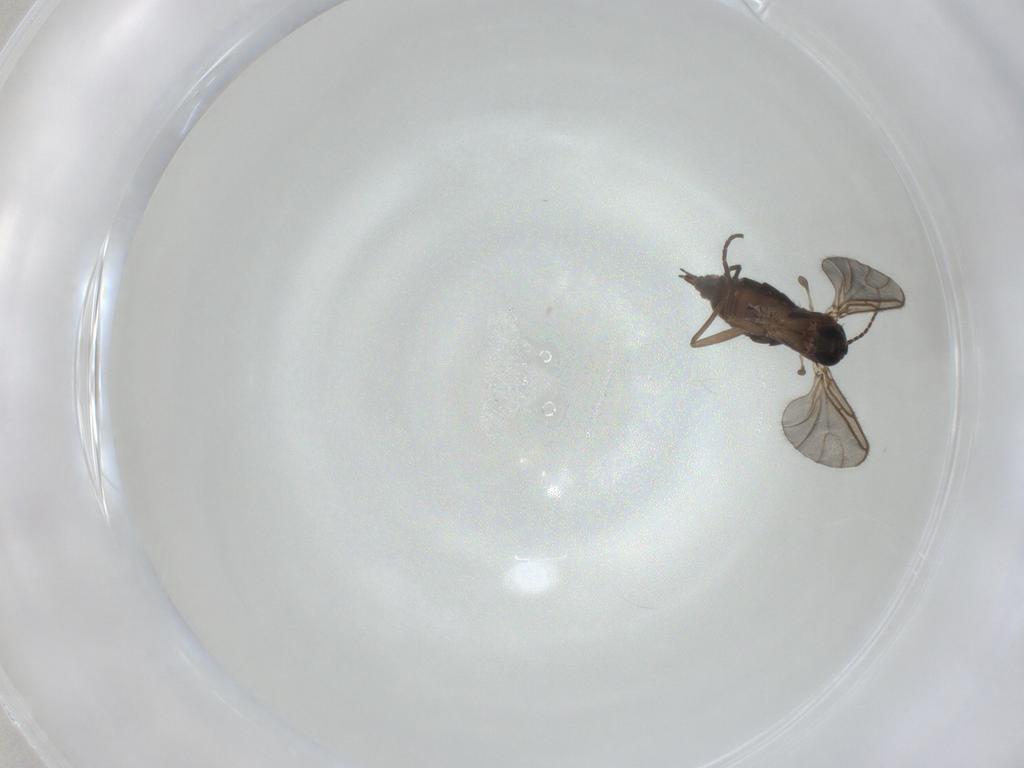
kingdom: Animalia
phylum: Arthropoda
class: Insecta
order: Diptera
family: Sciaridae
